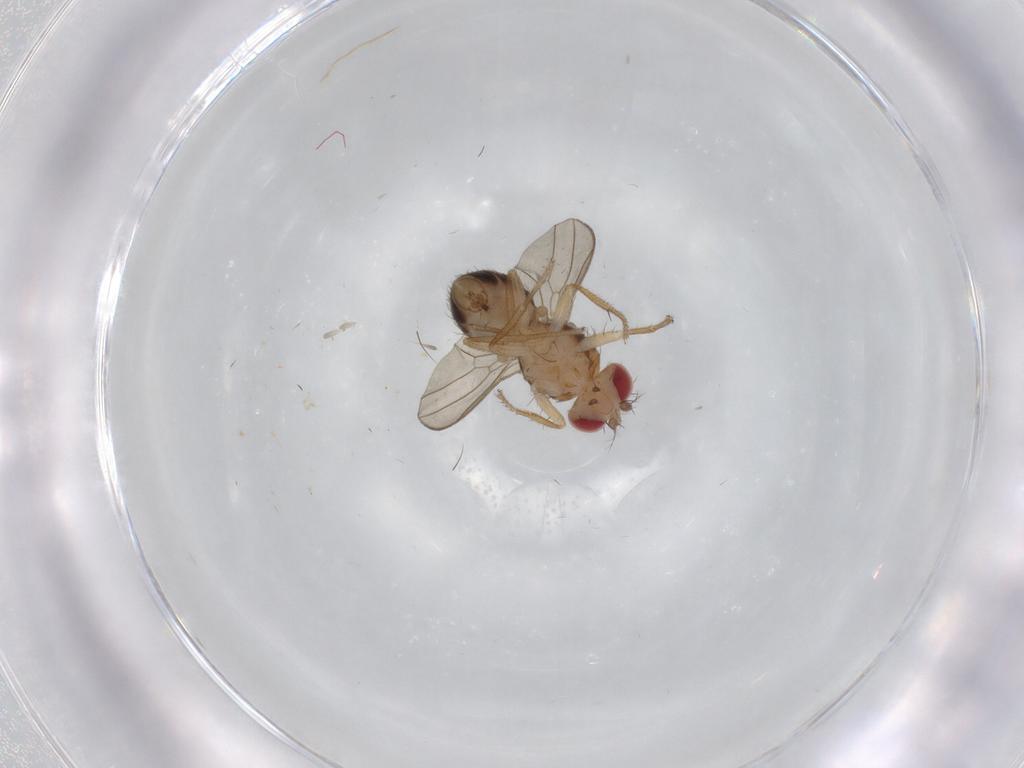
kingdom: Animalia
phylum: Arthropoda
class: Insecta
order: Diptera
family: Drosophilidae
